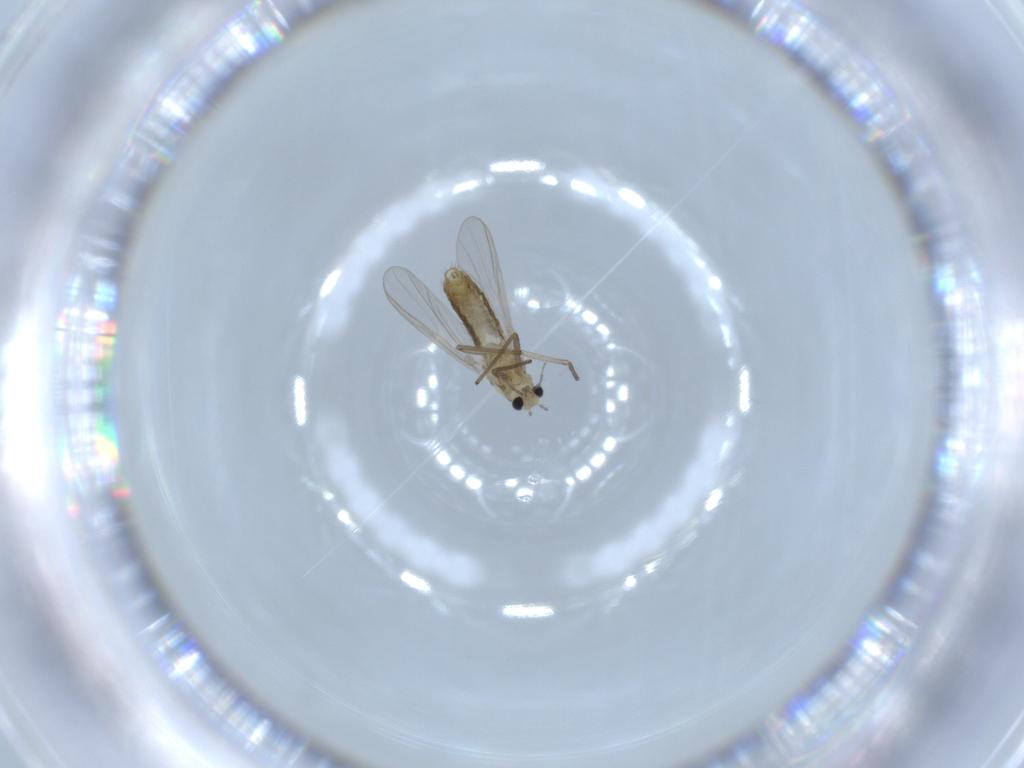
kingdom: Animalia
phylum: Arthropoda
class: Insecta
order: Diptera
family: Chironomidae
